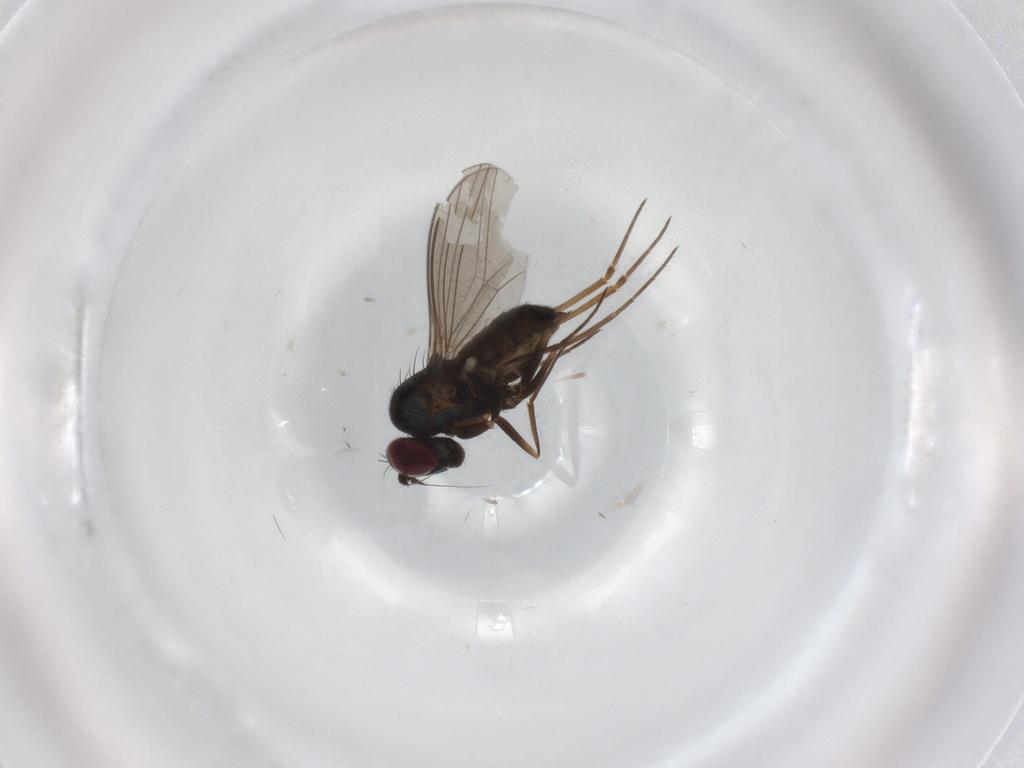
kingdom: Animalia
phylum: Arthropoda
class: Insecta
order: Diptera
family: Dolichopodidae
